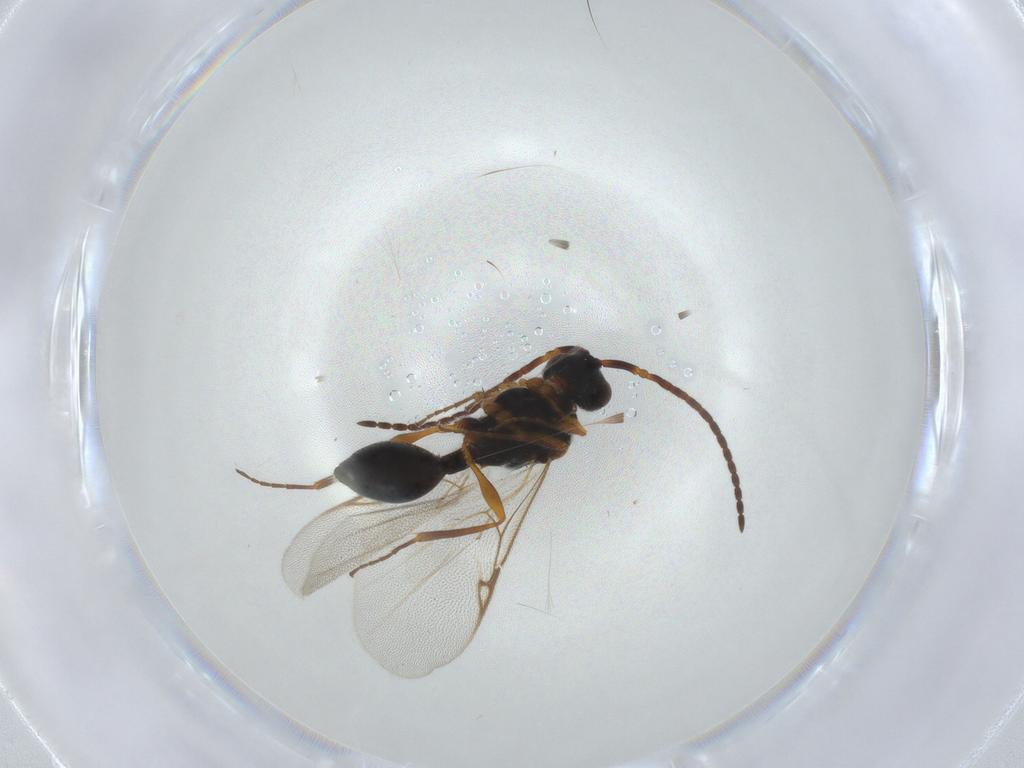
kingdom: Animalia
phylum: Arthropoda
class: Insecta
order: Hymenoptera
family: Diapriidae
